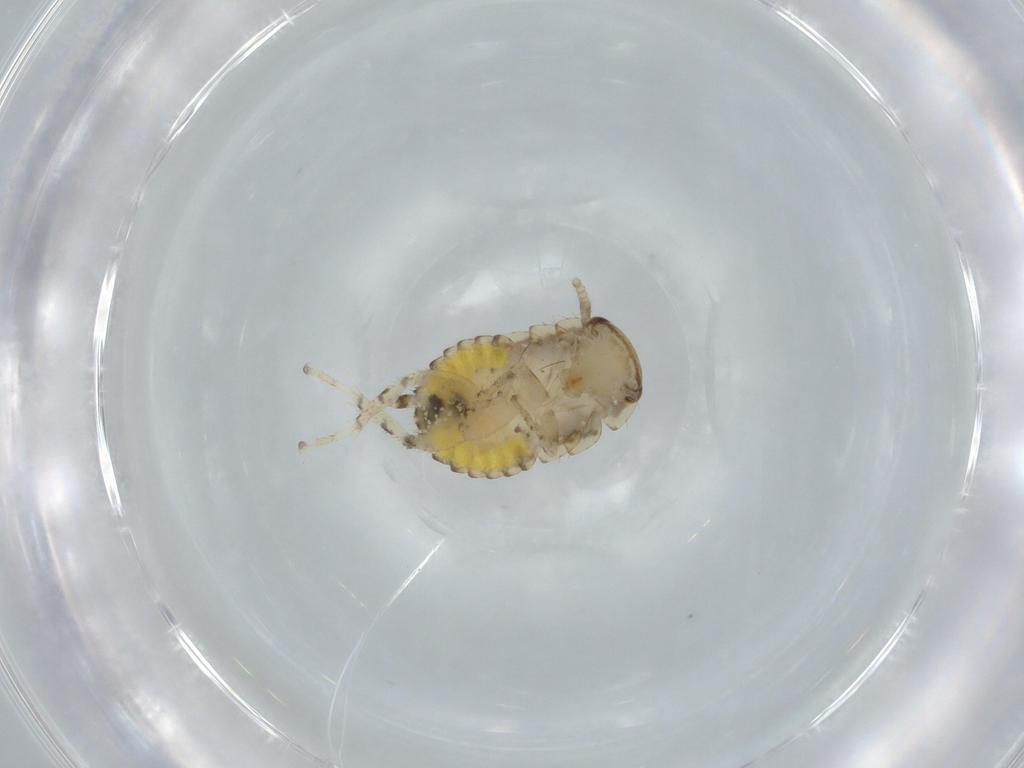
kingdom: Animalia
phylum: Arthropoda
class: Insecta
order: Blattodea
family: Ectobiidae
